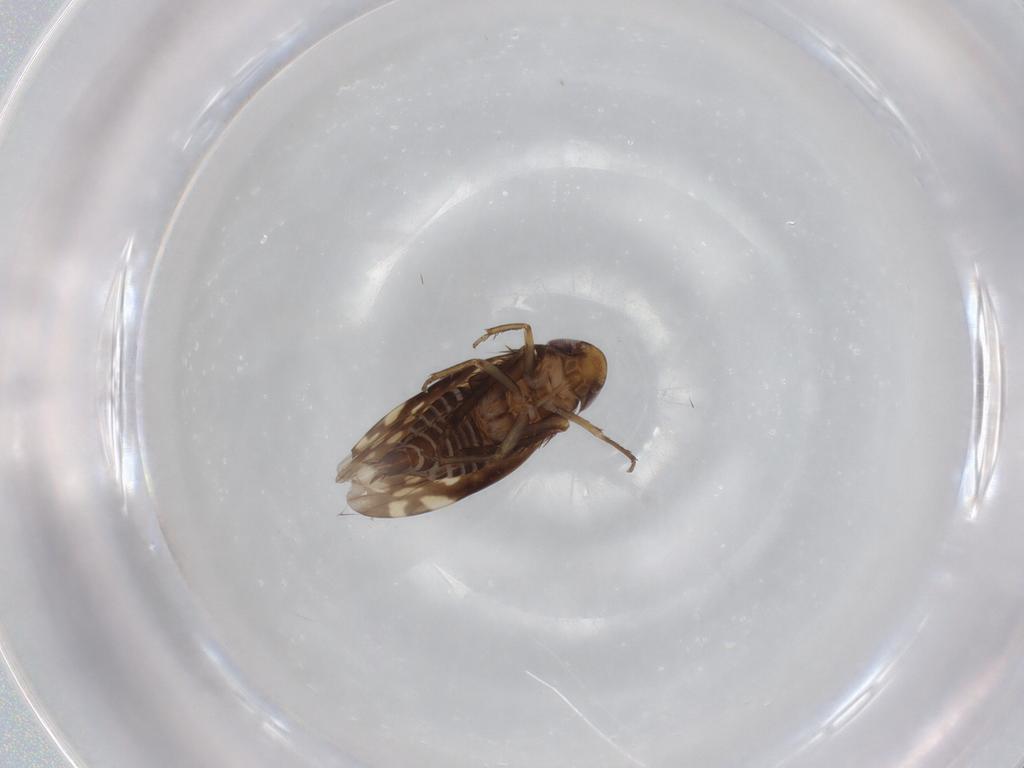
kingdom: Animalia
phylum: Arthropoda
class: Insecta
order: Hemiptera
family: Cicadellidae
